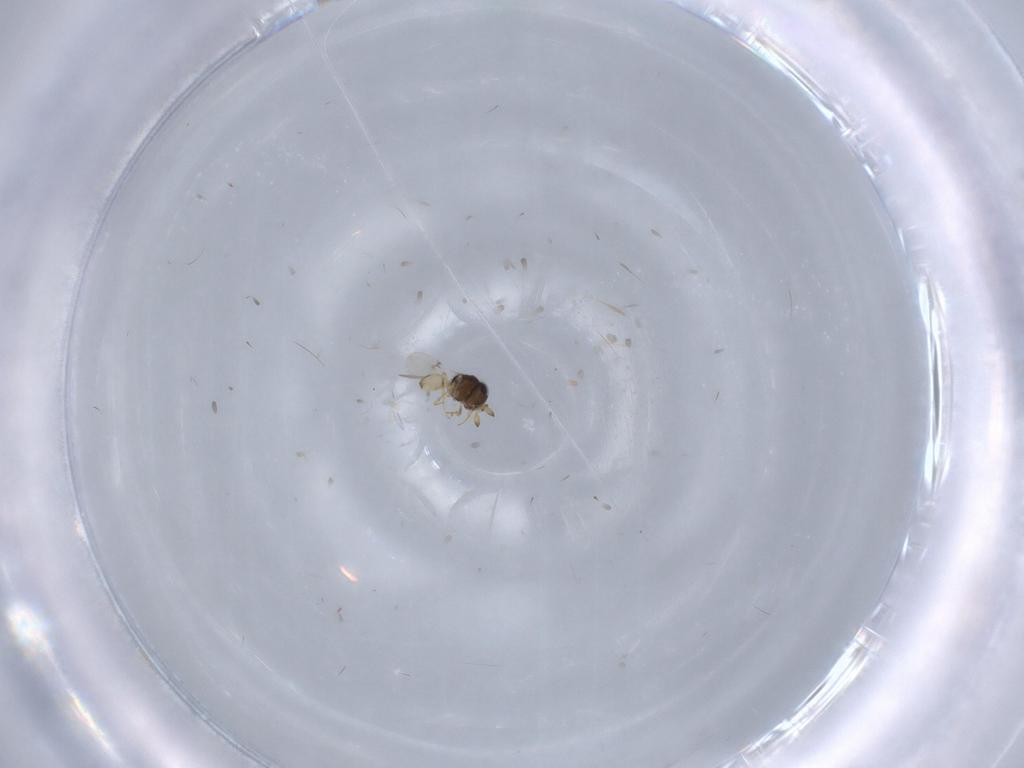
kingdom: Animalia
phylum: Arthropoda
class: Insecta
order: Hymenoptera
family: Scelionidae
